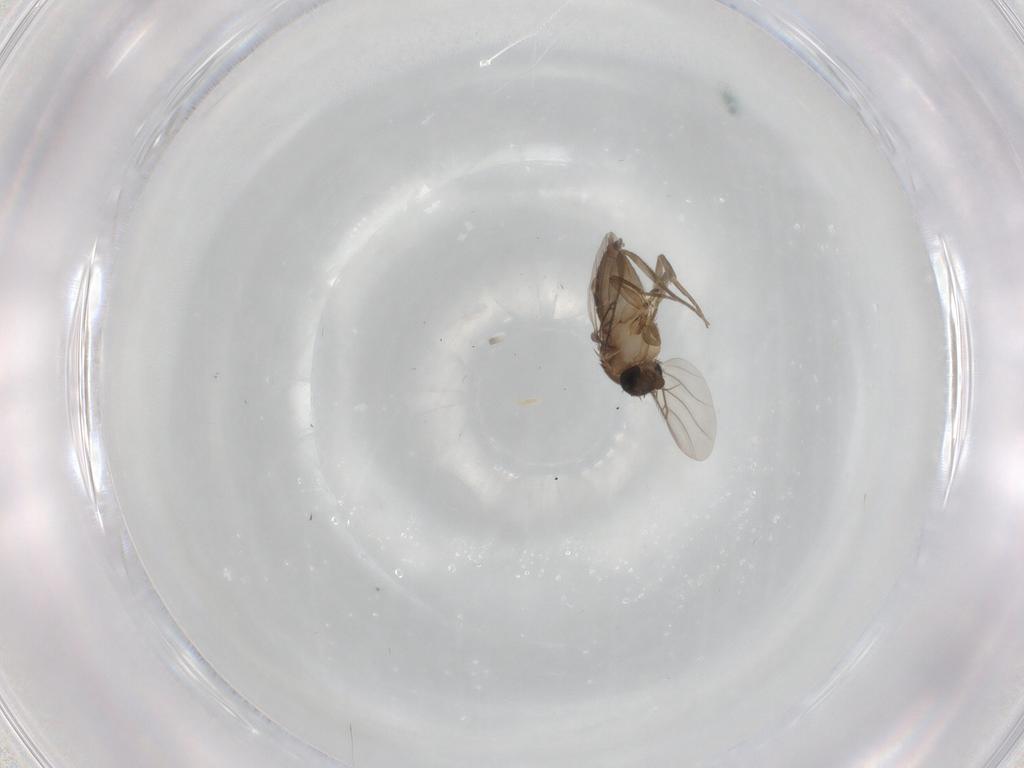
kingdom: Animalia
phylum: Arthropoda
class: Insecta
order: Diptera
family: Phoridae
